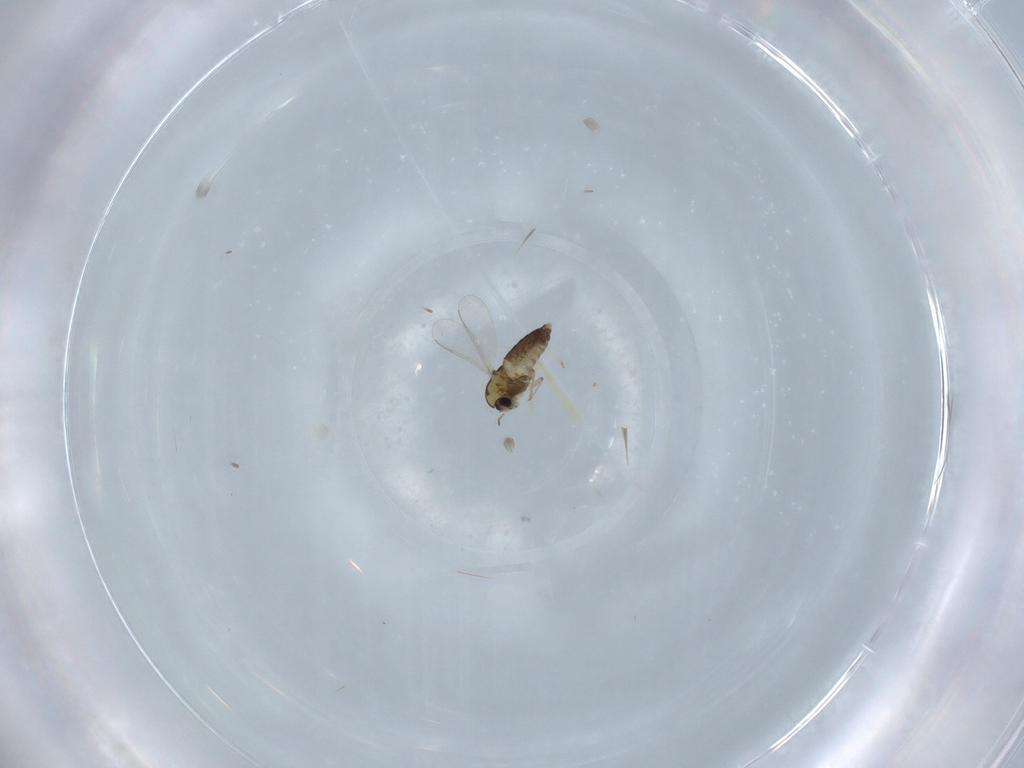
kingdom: Animalia
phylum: Arthropoda
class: Insecta
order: Diptera
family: Chironomidae
